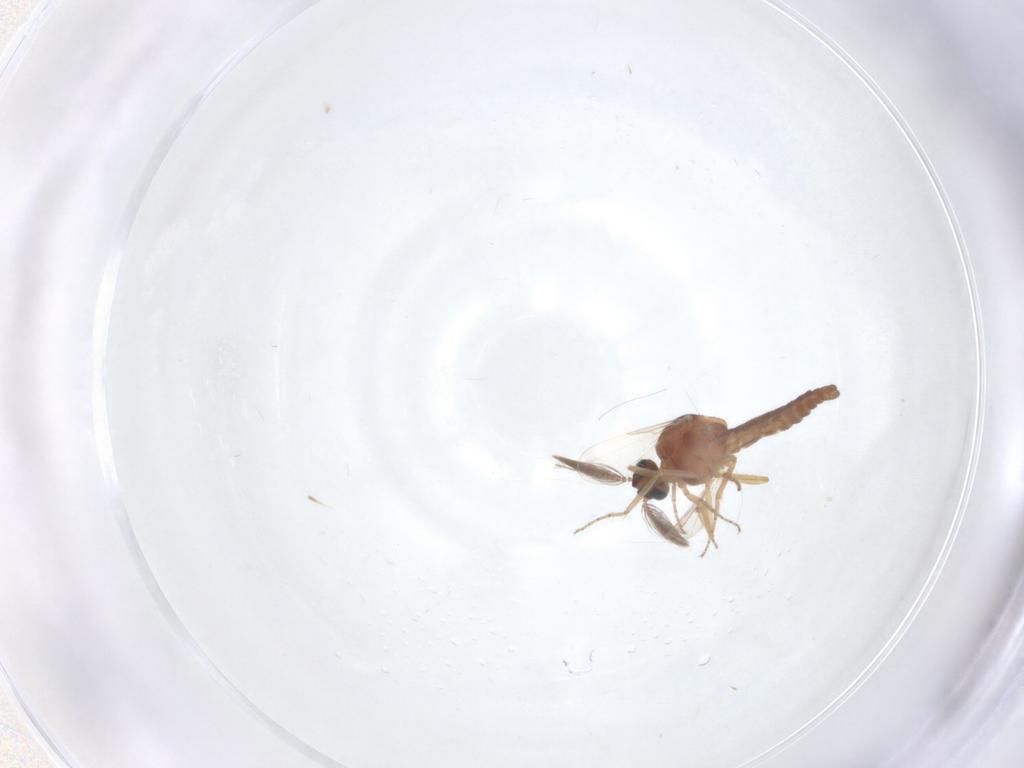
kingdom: Animalia
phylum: Arthropoda
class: Insecta
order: Diptera
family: Ceratopogonidae
